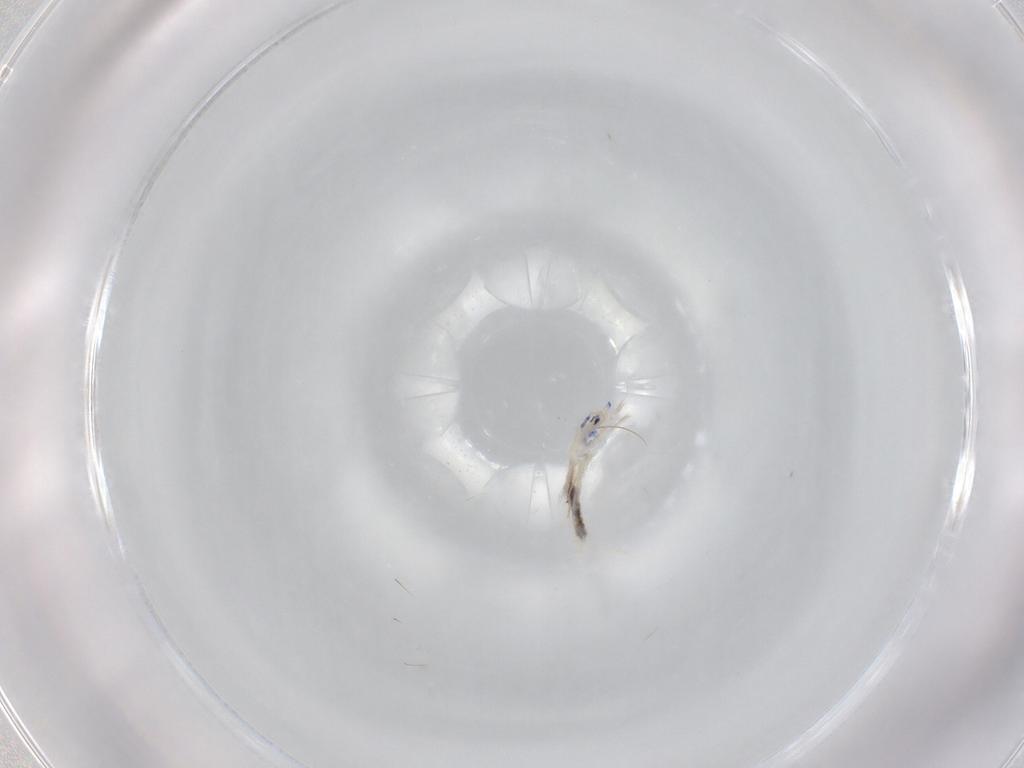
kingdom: Animalia
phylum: Arthropoda
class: Collembola
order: Entomobryomorpha
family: Entomobryidae
